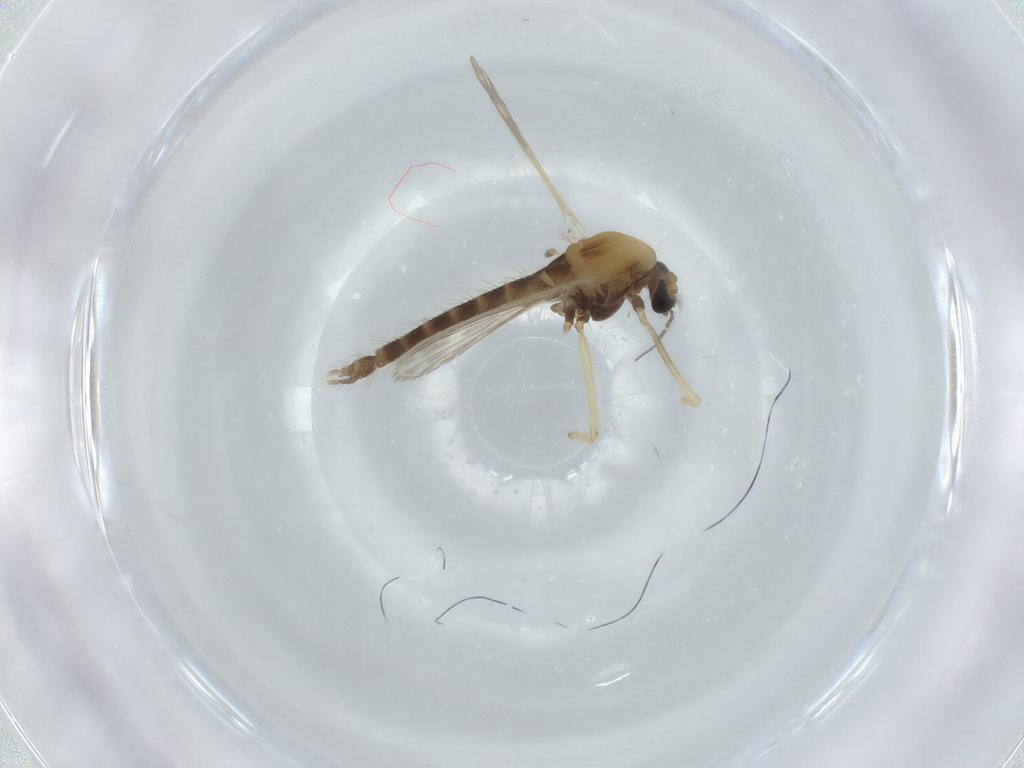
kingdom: Animalia
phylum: Arthropoda
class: Insecta
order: Diptera
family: Chironomidae
